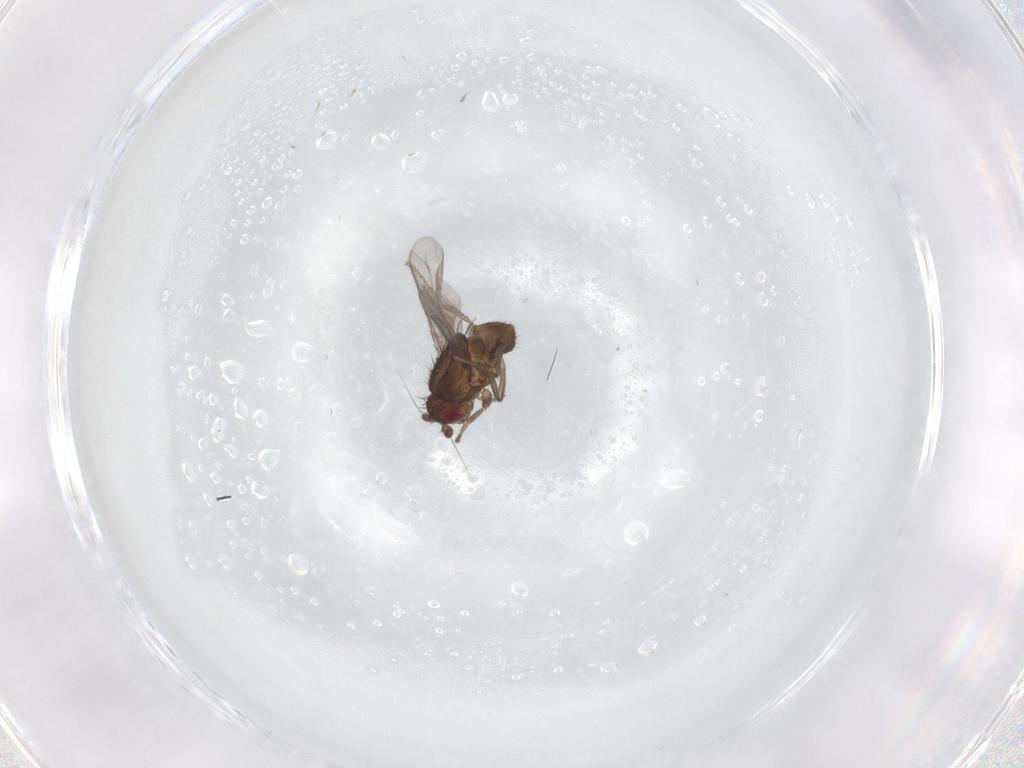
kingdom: Animalia
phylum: Arthropoda
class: Insecta
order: Diptera
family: Sphaeroceridae
